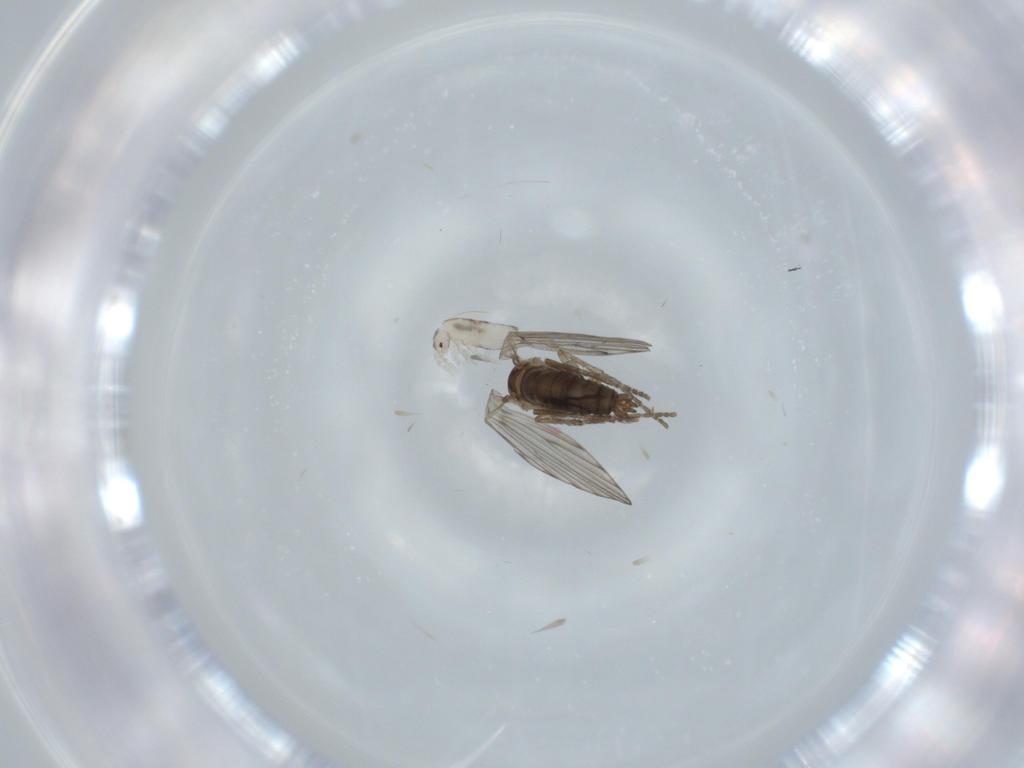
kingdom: Animalia
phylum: Arthropoda
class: Insecta
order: Diptera
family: Psychodidae
